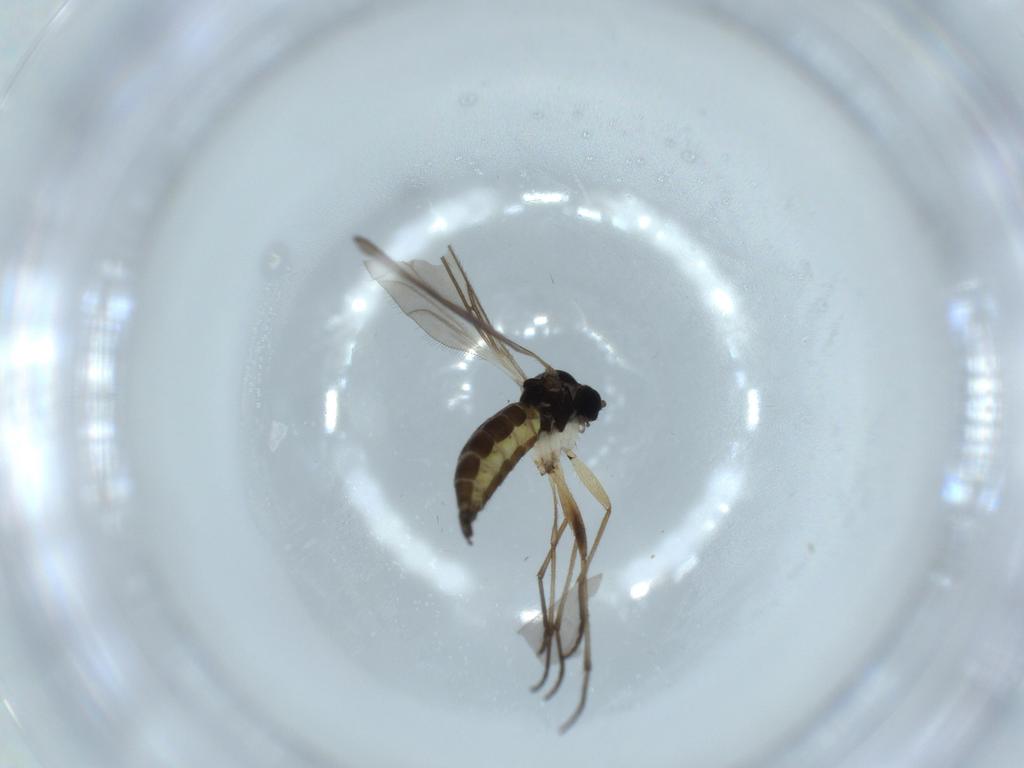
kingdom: Animalia
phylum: Arthropoda
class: Insecta
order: Diptera
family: Sciaridae
